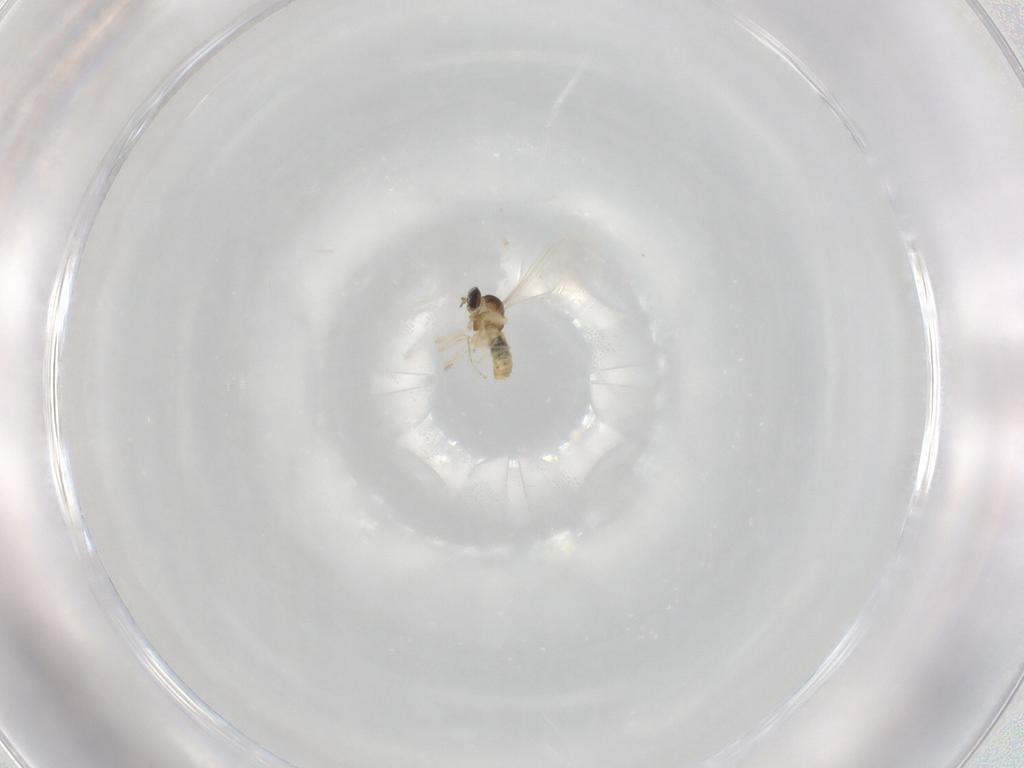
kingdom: Animalia
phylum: Arthropoda
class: Insecta
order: Diptera
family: Cecidomyiidae
